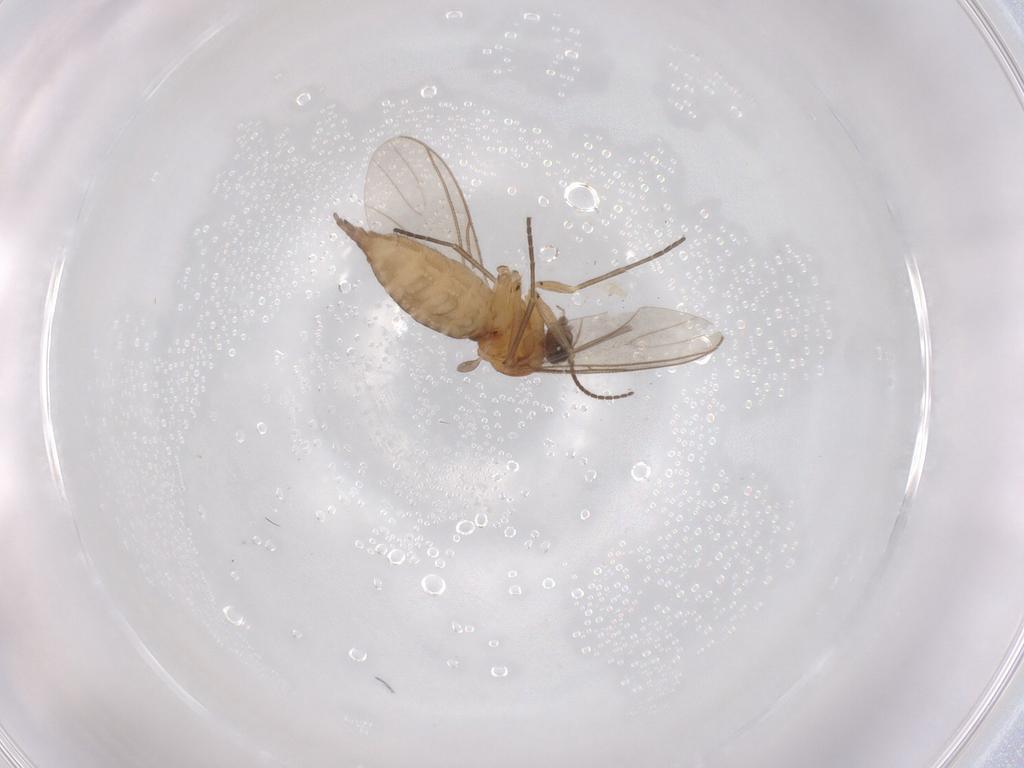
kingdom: Animalia
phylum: Arthropoda
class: Insecta
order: Diptera
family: Sciaridae
